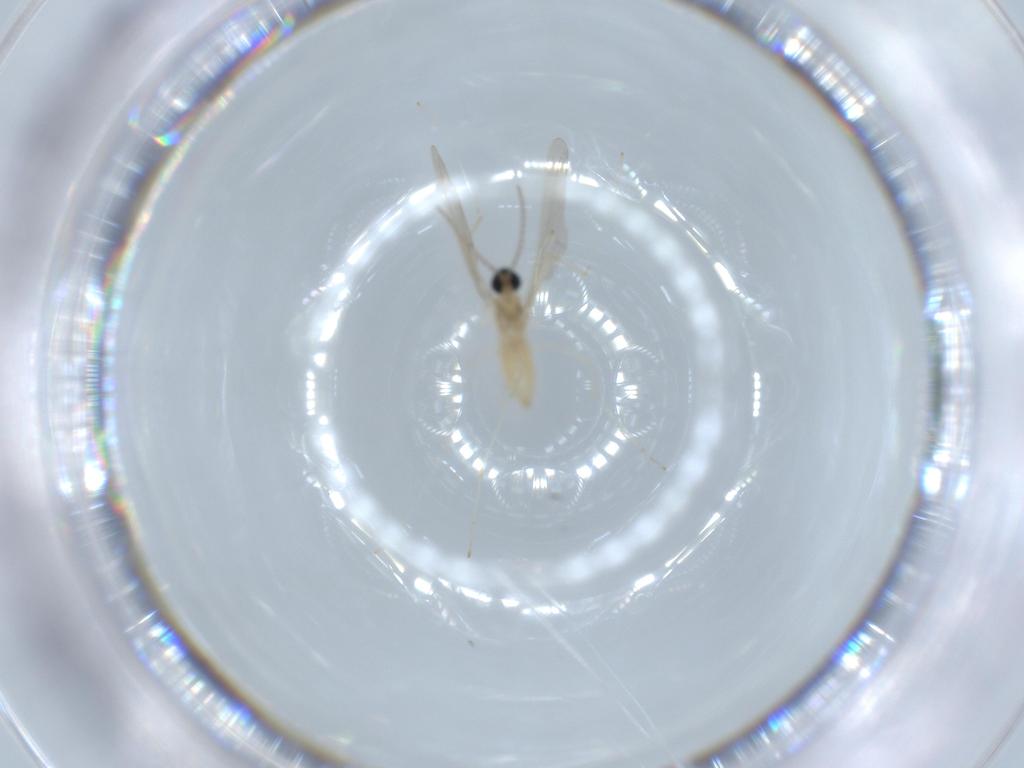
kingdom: Animalia
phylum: Arthropoda
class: Insecta
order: Diptera
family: Cecidomyiidae
